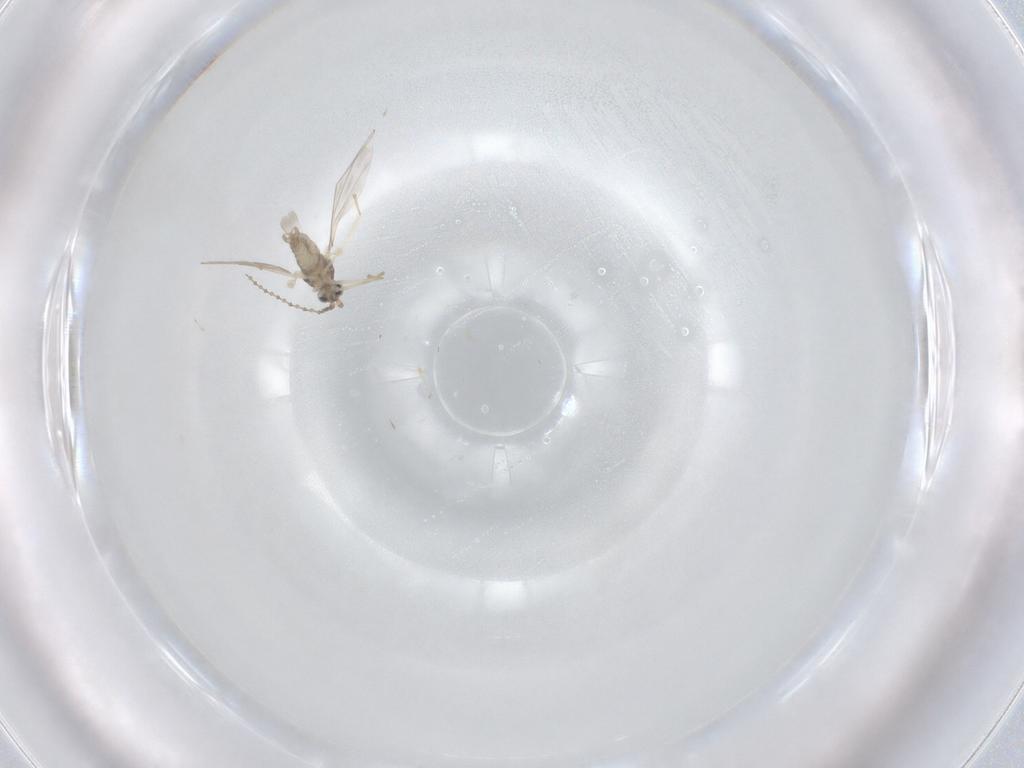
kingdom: Animalia
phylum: Arthropoda
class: Insecta
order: Diptera
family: Cecidomyiidae
